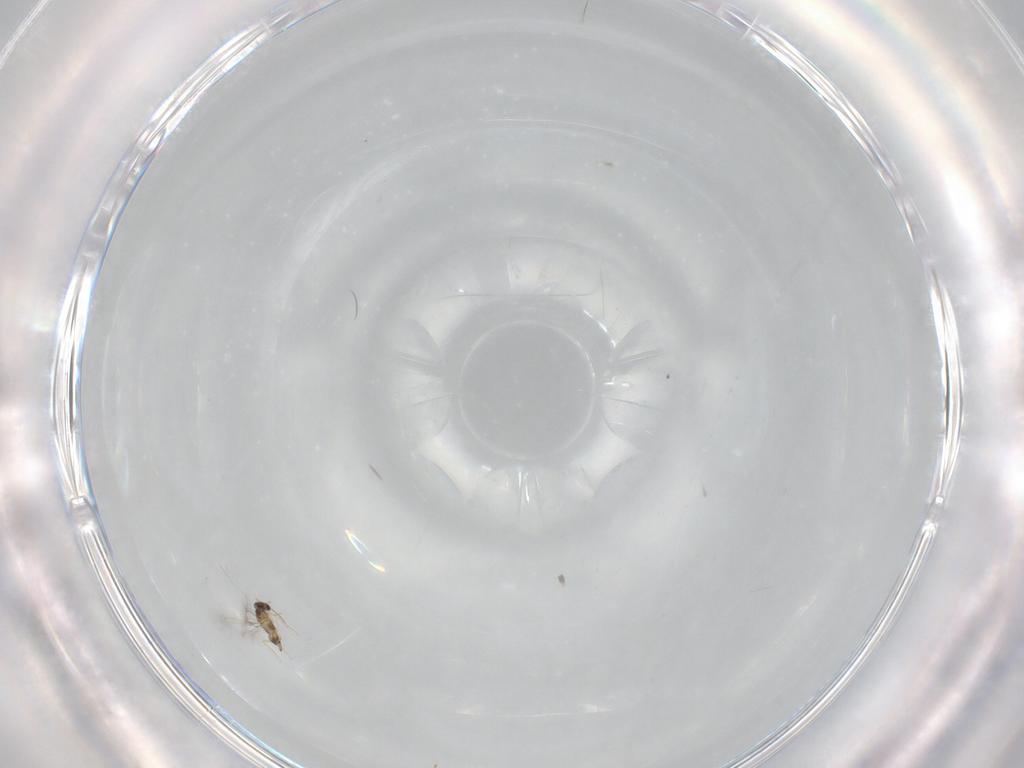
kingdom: Animalia
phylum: Arthropoda
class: Insecta
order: Hymenoptera
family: Mymaridae
